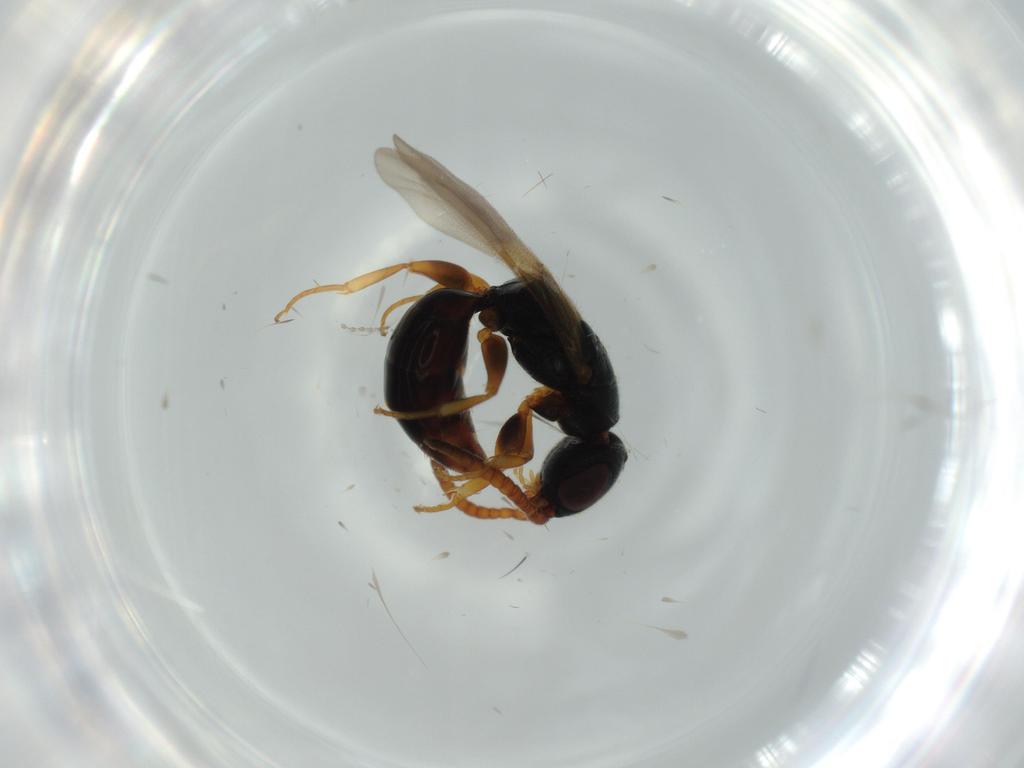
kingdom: Animalia
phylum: Arthropoda
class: Insecta
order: Hymenoptera
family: Bethylidae
